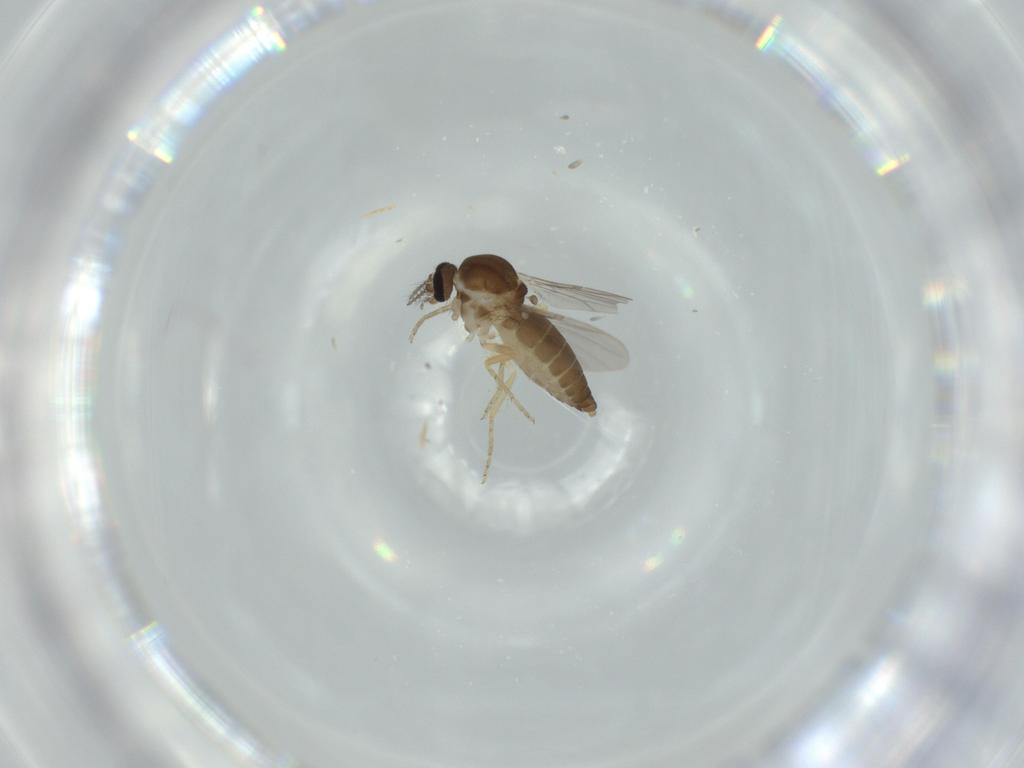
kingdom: Animalia
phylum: Arthropoda
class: Insecta
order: Diptera
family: Ceratopogonidae
